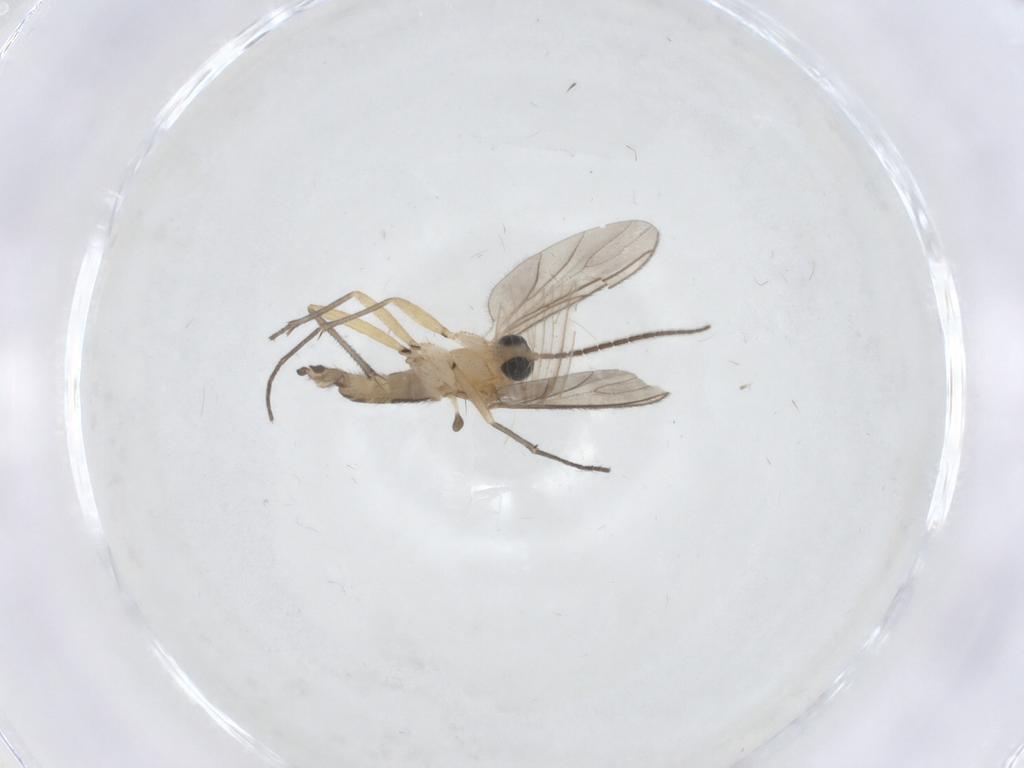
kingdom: Animalia
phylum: Arthropoda
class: Insecta
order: Diptera
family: Sciaridae
